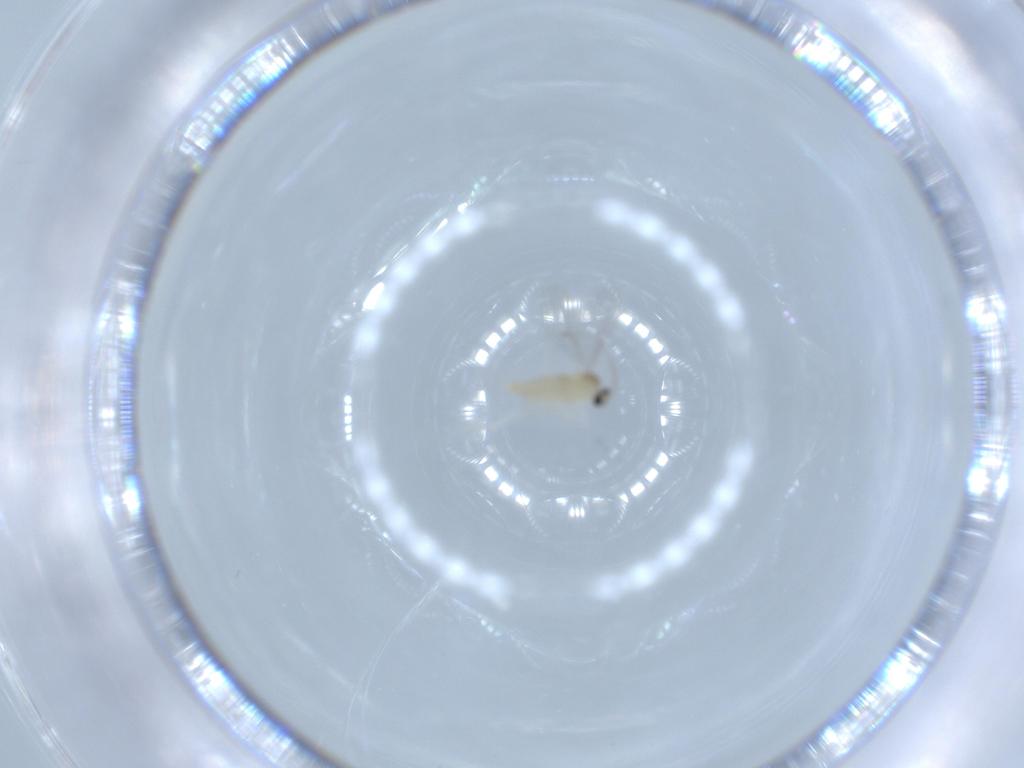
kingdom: Animalia
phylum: Arthropoda
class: Insecta
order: Diptera
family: Cecidomyiidae
